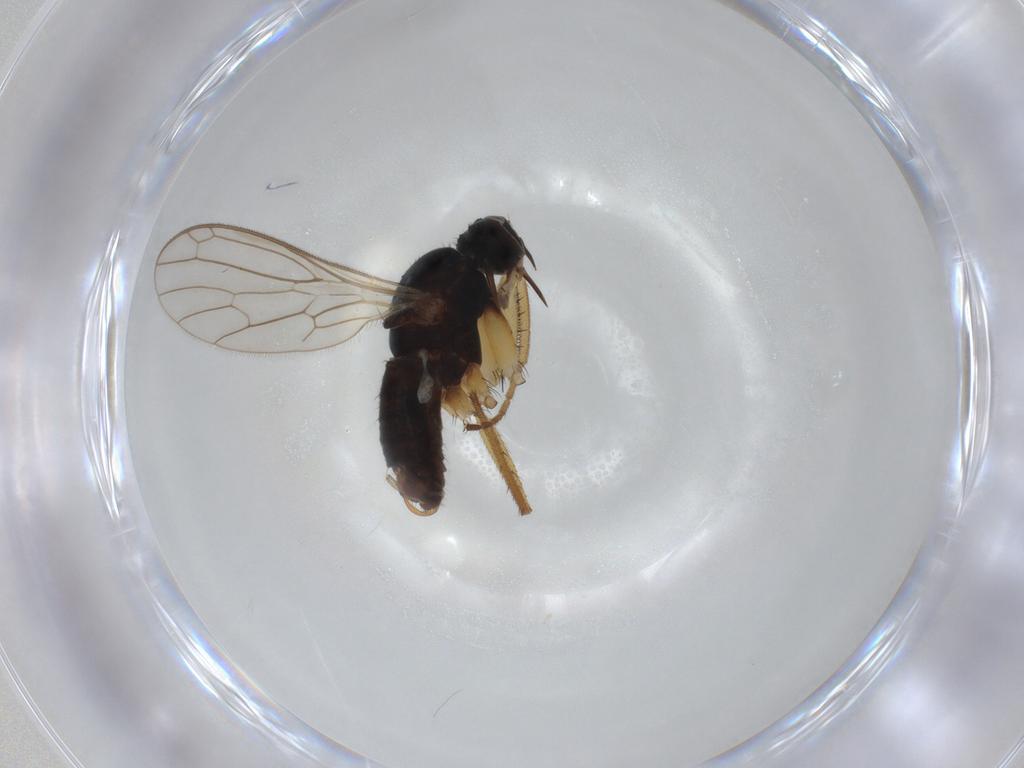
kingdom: Animalia
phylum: Arthropoda
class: Insecta
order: Diptera
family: Empididae
